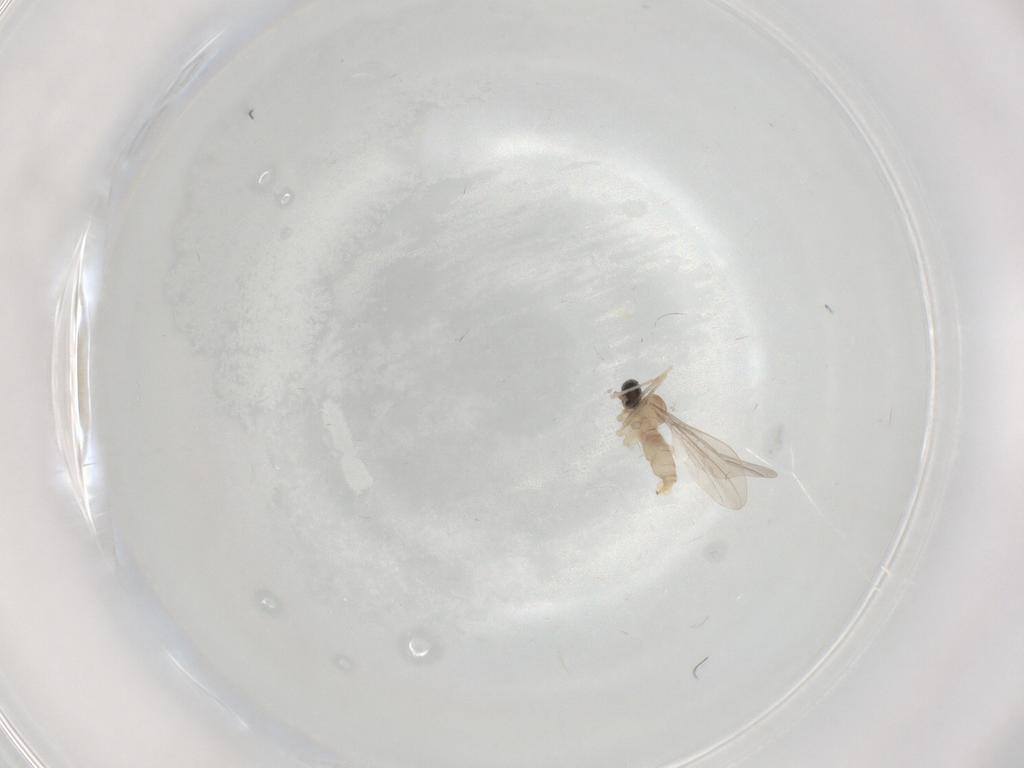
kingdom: Animalia
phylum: Arthropoda
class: Insecta
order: Diptera
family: Cecidomyiidae
